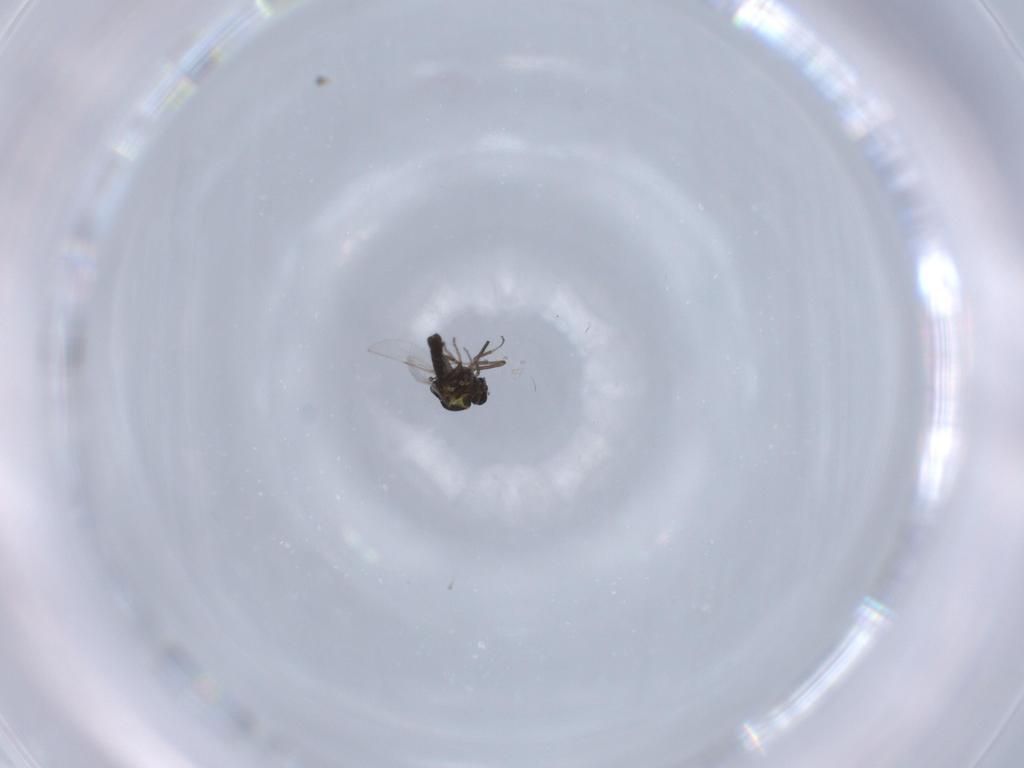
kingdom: Animalia
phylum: Arthropoda
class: Insecta
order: Diptera
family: Ceratopogonidae
